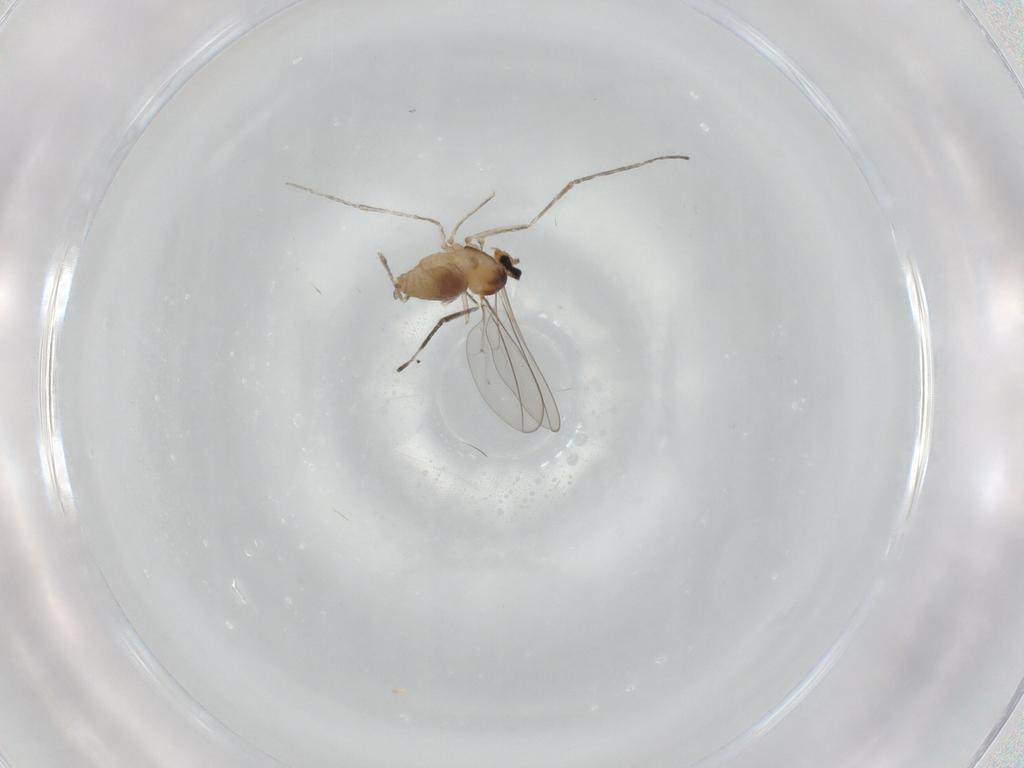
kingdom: Animalia
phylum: Arthropoda
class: Insecta
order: Diptera
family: Cecidomyiidae
